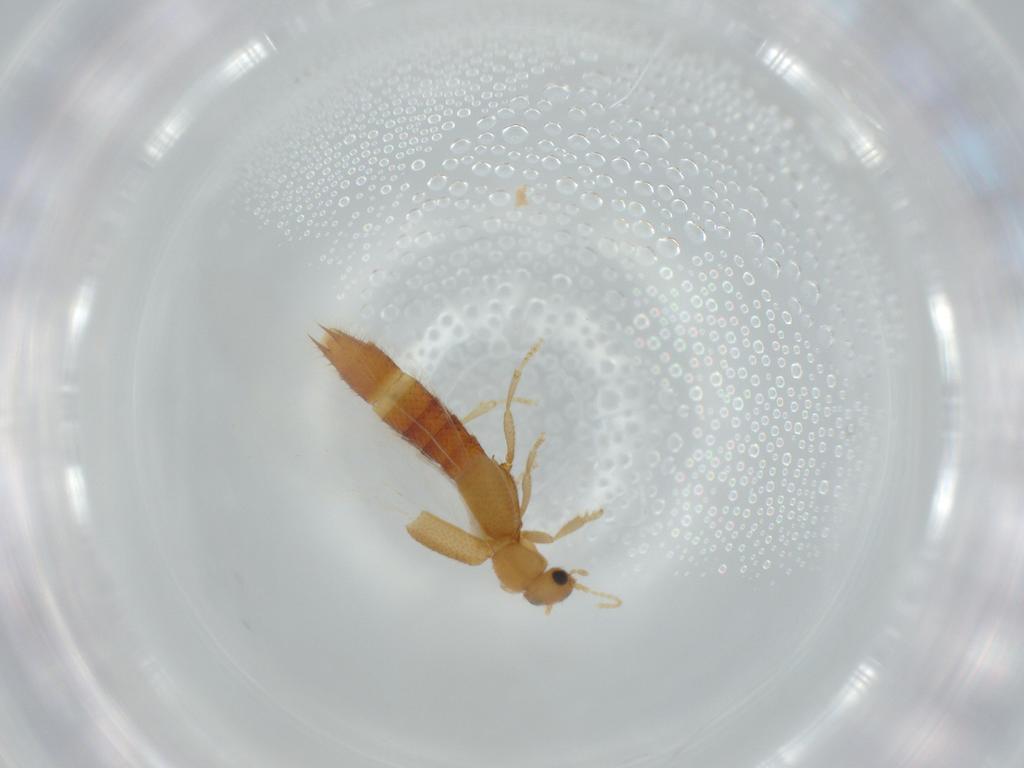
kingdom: Animalia
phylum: Arthropoda
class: Insecta
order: Coleoptera
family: Staphylinidae
